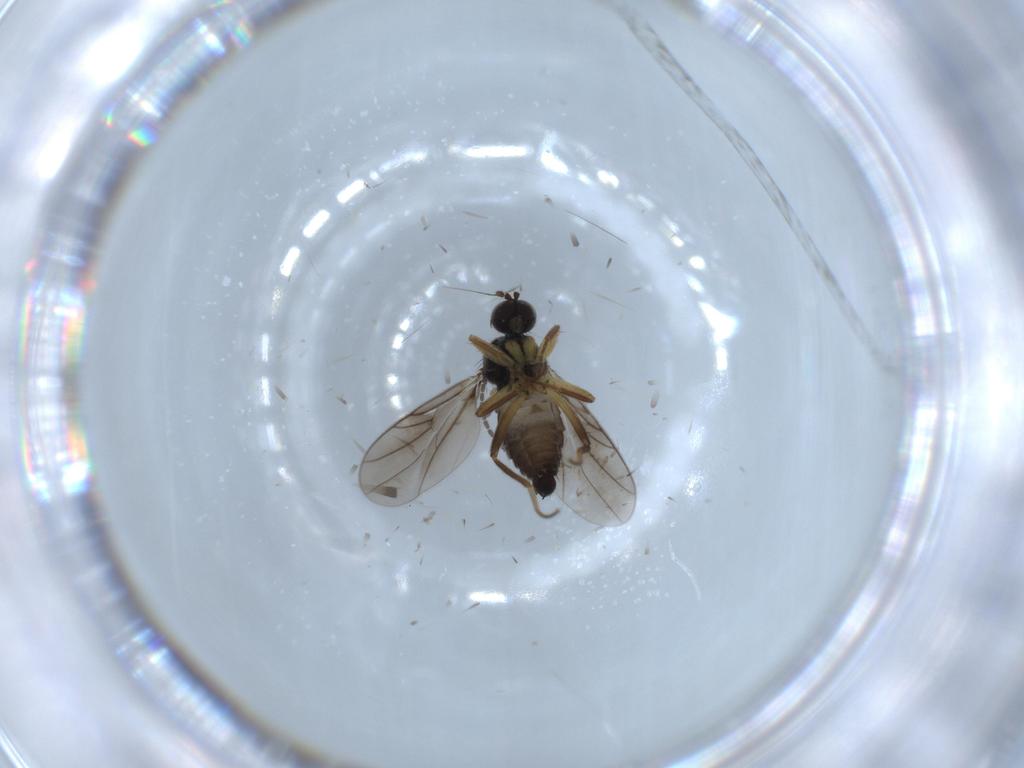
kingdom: Animalia
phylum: Arthropoda
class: Insecta
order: Diptera
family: Hybotidae
